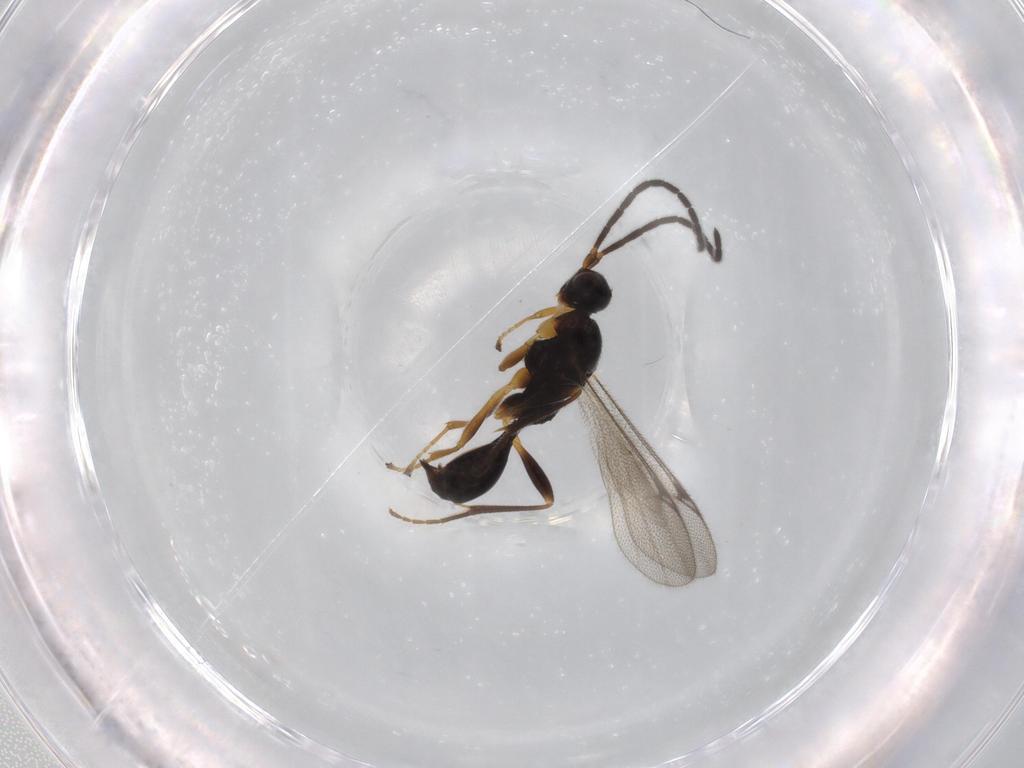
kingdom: Animalia
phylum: Arthropoda
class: Insecta
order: Hymenoptera
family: Proctotrupidae
